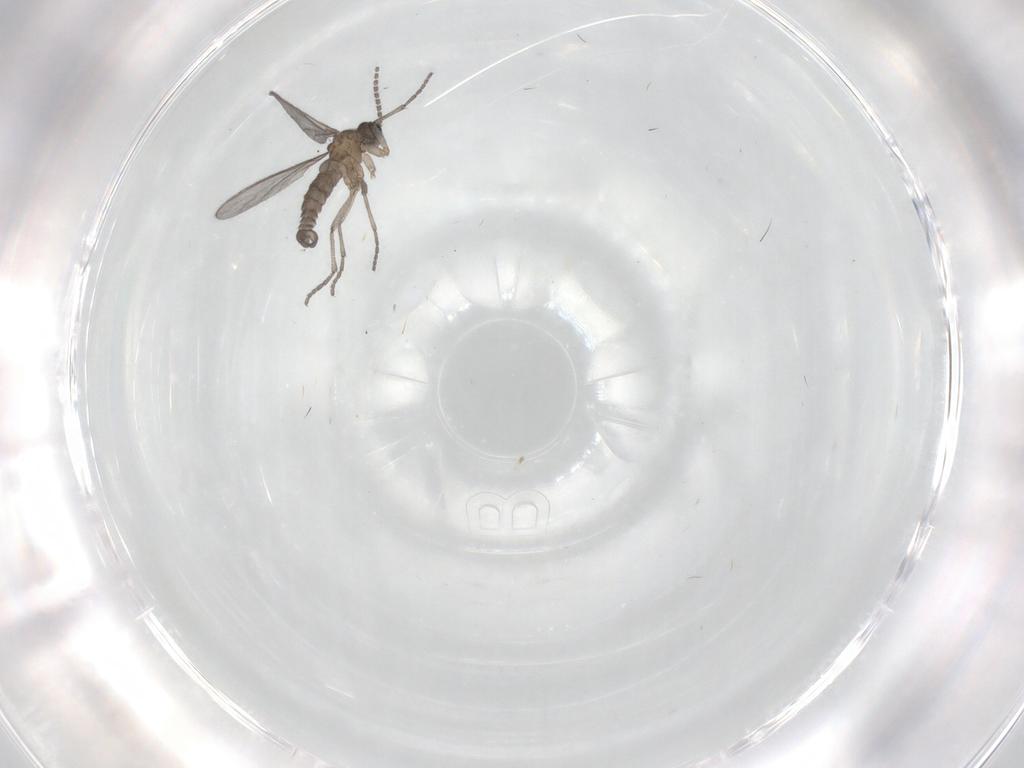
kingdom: Animalia
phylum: Arthropoda
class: Insecta
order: Diptera
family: Sciaridae
